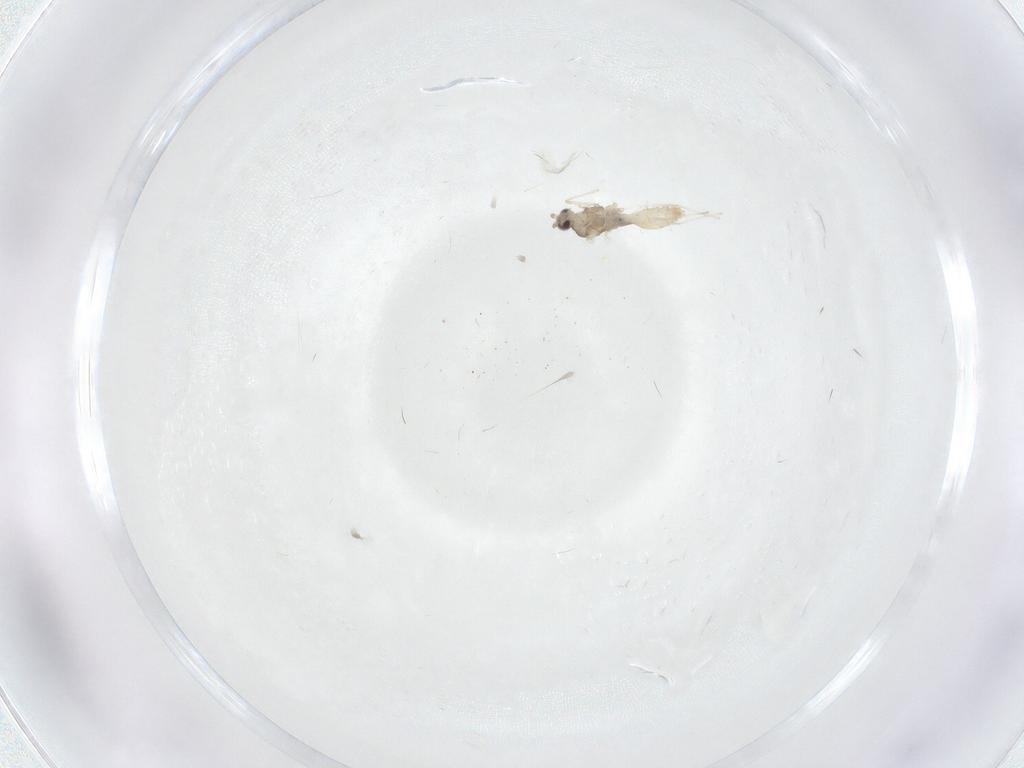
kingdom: Animalia
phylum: Arthropoda
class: Insecta
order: Diptera
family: Cecidomyiidae
